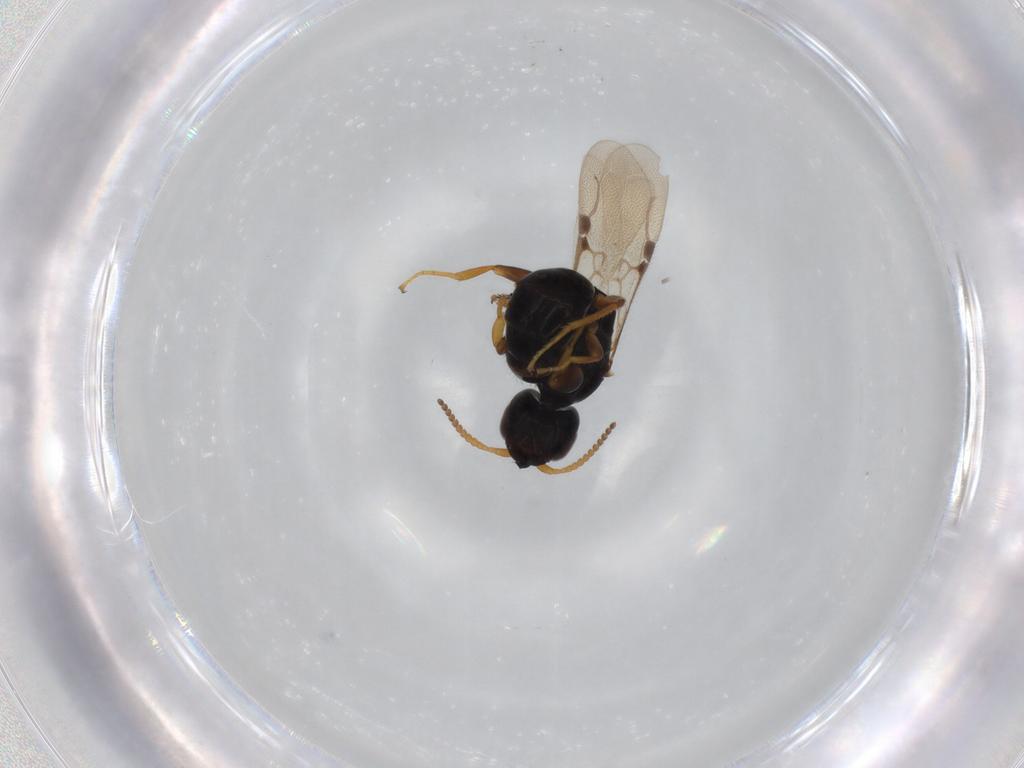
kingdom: Animalia
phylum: Arthropoda
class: Insecta
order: Hymenoptera
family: Bethylidae
